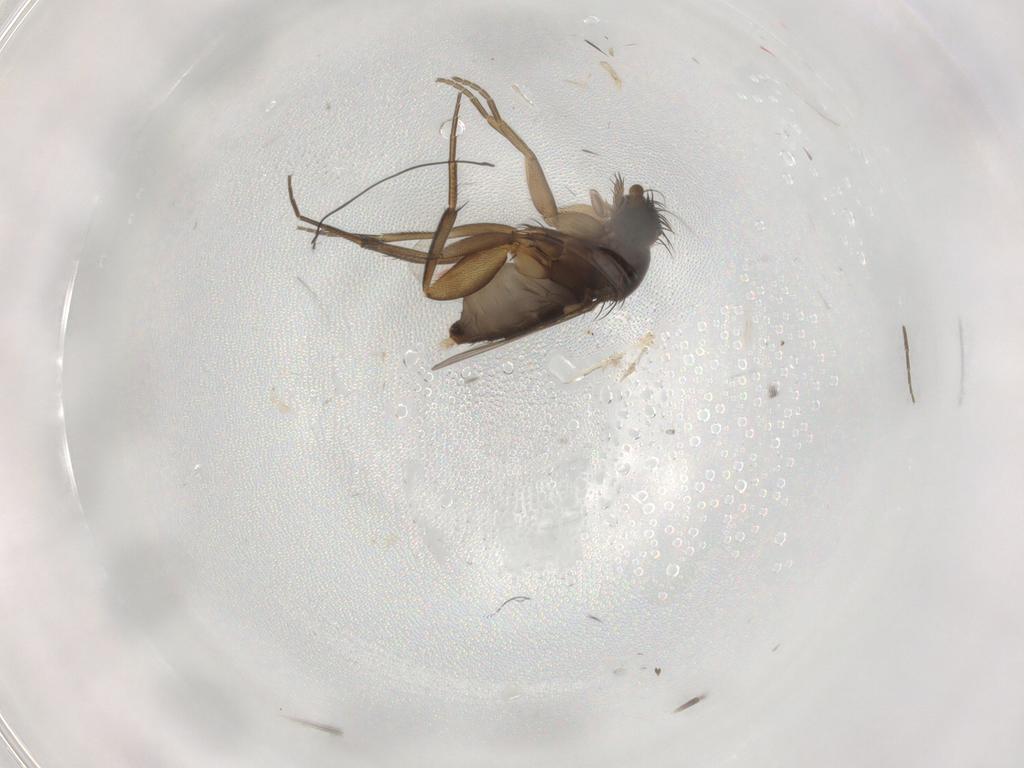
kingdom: Animalia
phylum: Arthropoda
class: Insecta
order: Diptera
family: Phoridae
